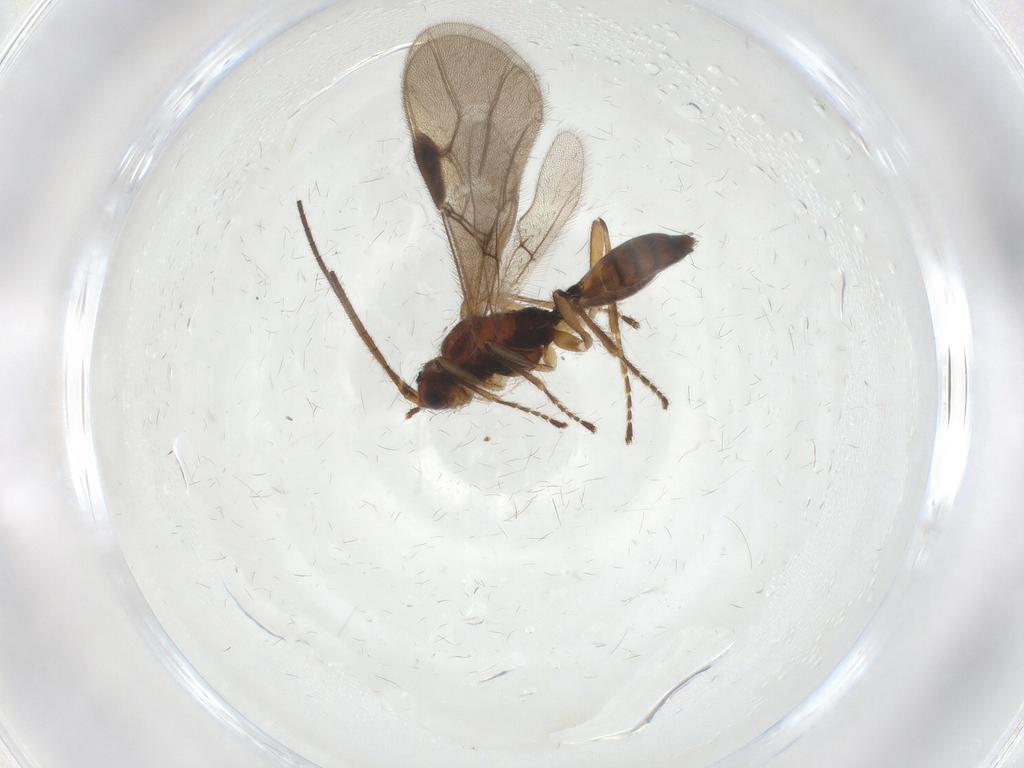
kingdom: Animalia
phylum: Arthropoda
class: Insecta
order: Hymenoptera
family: Braconidae
